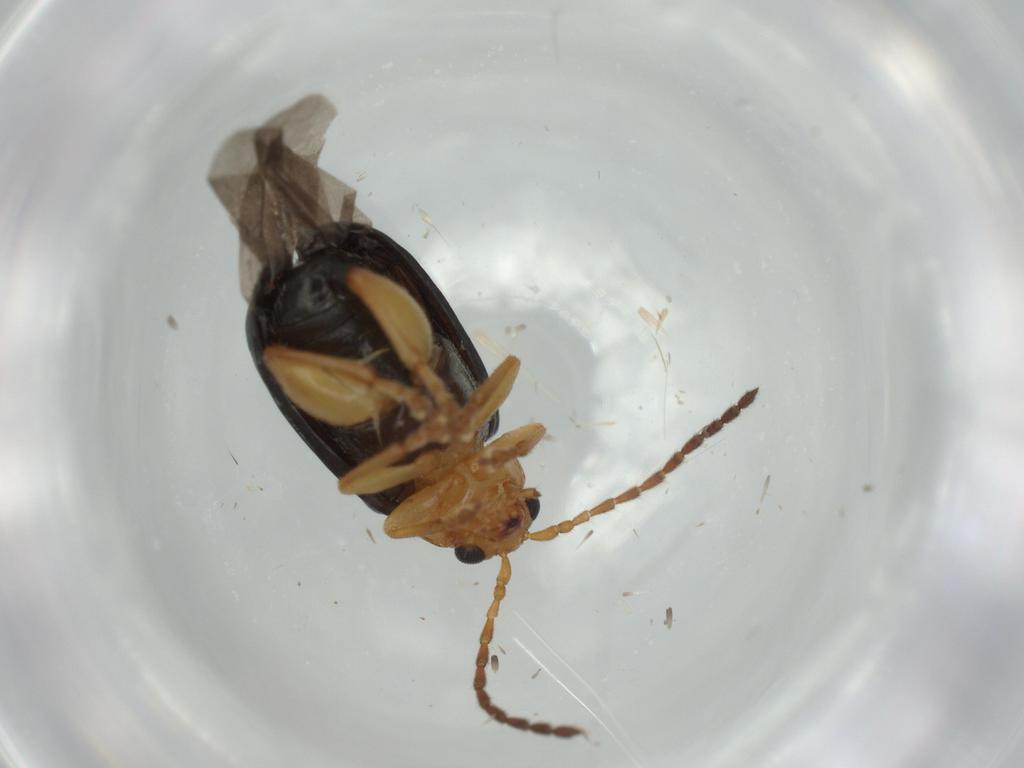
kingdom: Animalia
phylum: Arthropoda
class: Insecta
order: Coleoptera
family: Chrysomelidae
